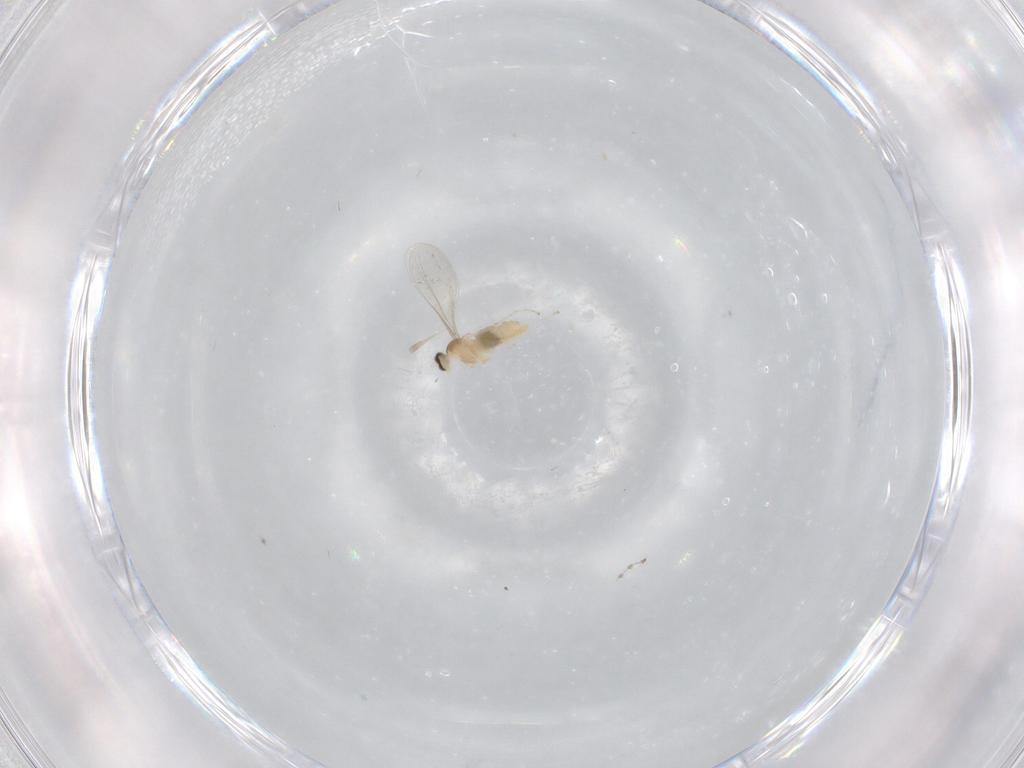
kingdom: Animalia
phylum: Arthropoda
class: Insecta
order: Diptera
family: Cecidomyiidae
